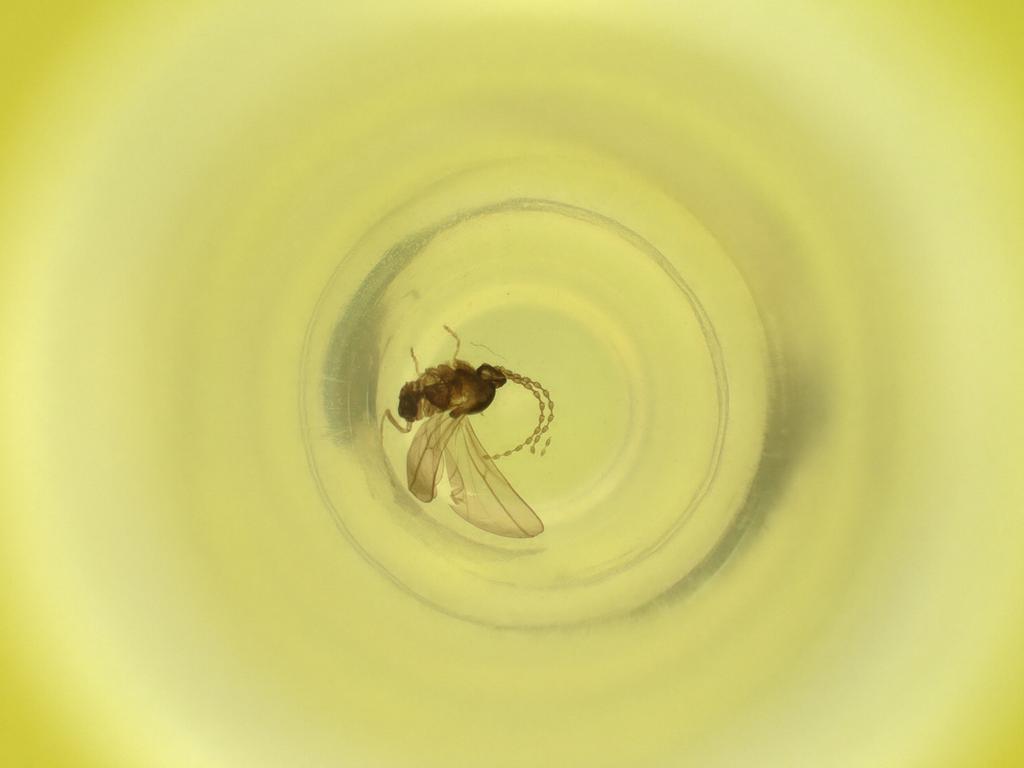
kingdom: Animalia
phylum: Arthropoda
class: Insecta
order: Diptera
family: Cecidomyiidae
